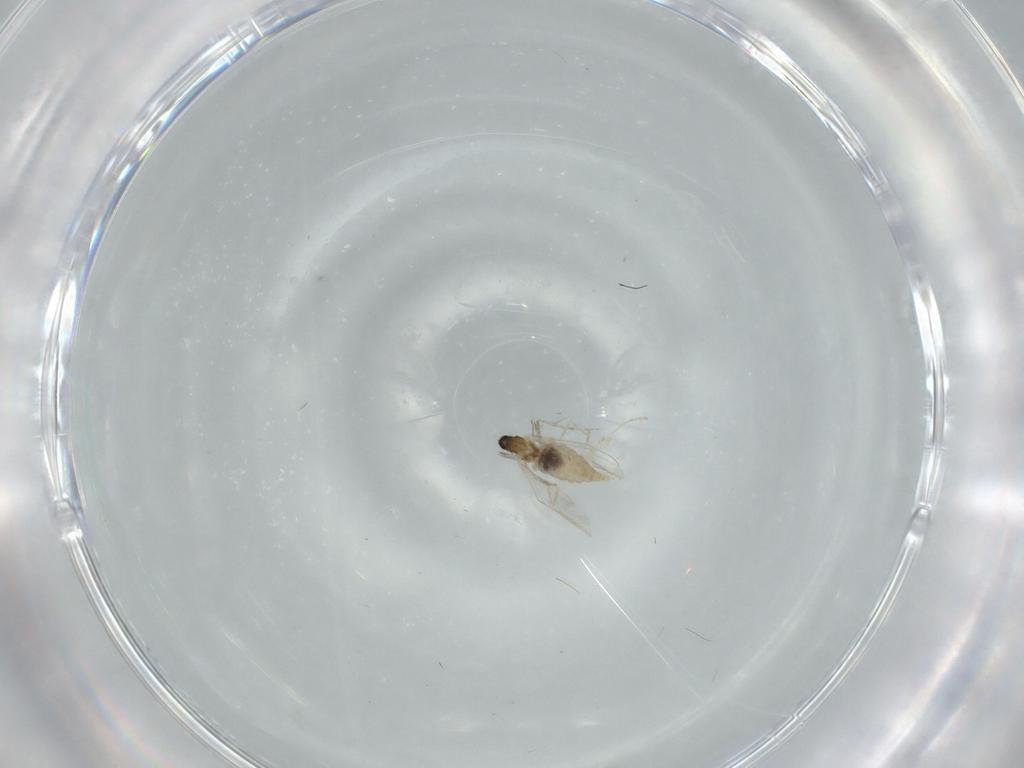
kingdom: Animalia
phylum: Arthropoda
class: Insecta
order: Diptera
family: Cecidomyiidae
